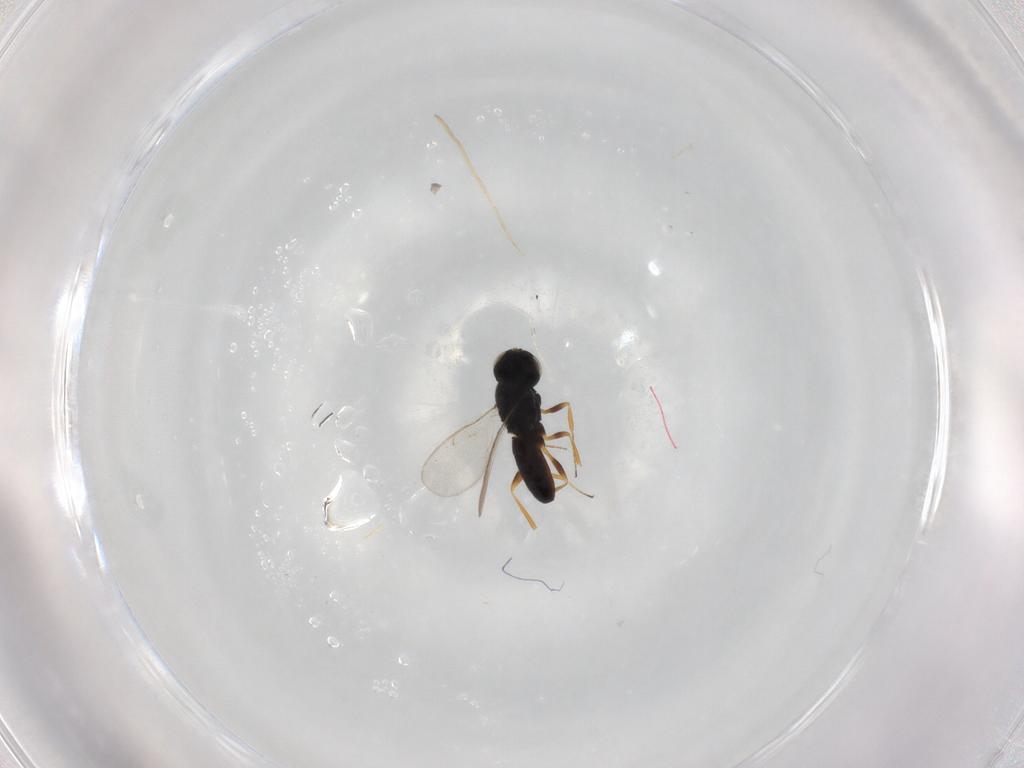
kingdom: Animalia
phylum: Arthropoda
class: Insecta
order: Hymenoptera
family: Scelionidae
